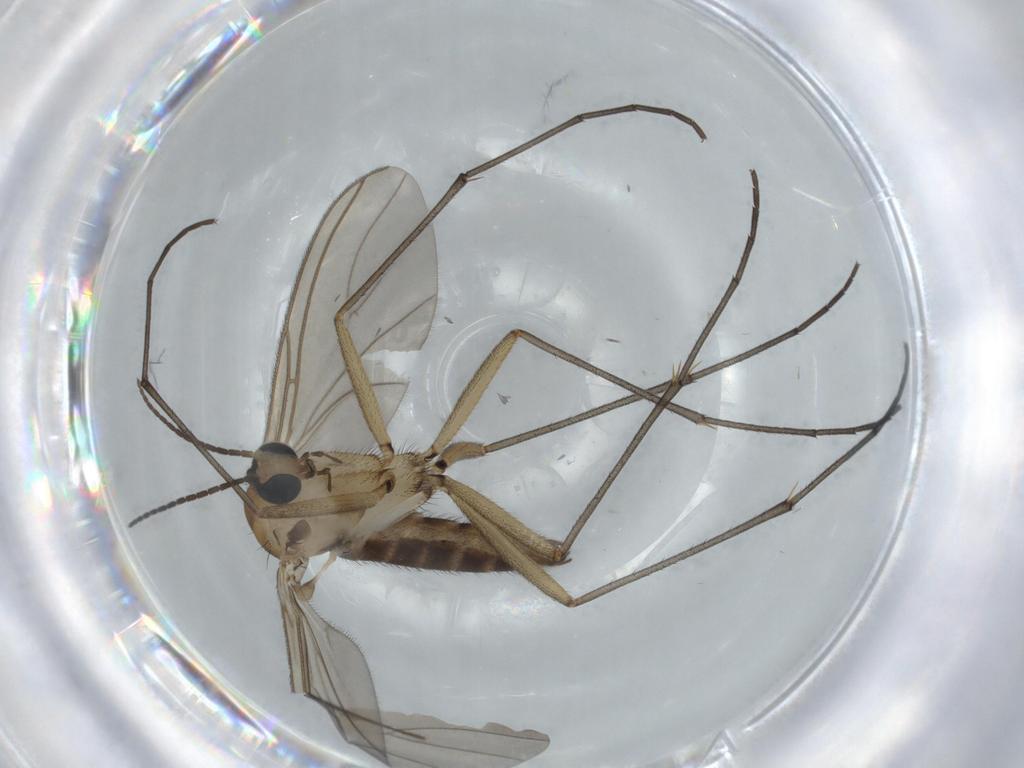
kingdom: Animalia
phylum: Arthropoda
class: Insecta
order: Diptera
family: Sciaridae
